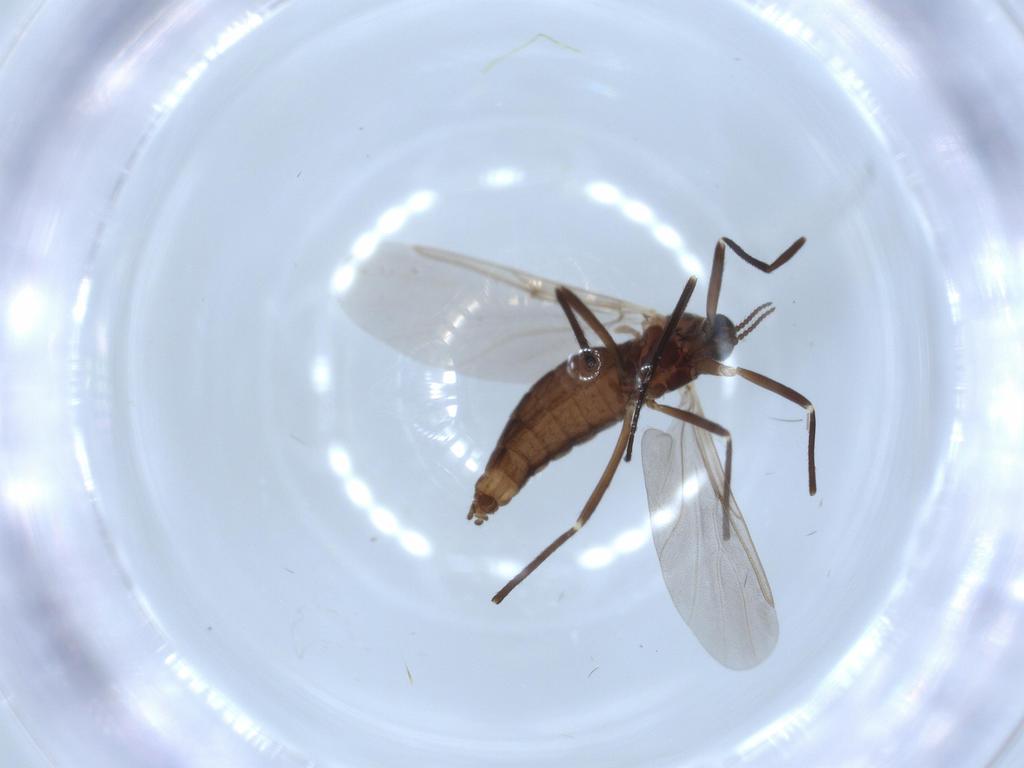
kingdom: Animalia
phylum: Arthropoda
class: Insecta
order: Diptera
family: Cecidomyiidae
